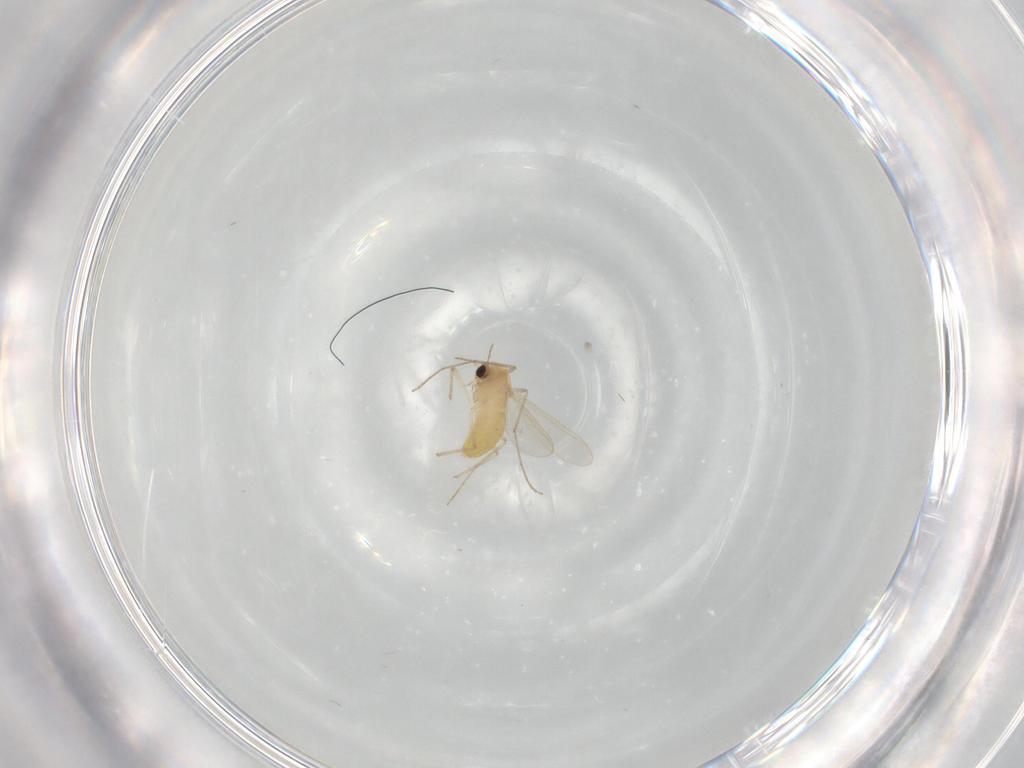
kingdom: Animalia
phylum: Arthropoda
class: Insecta
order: Diptera
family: Chironomidae
